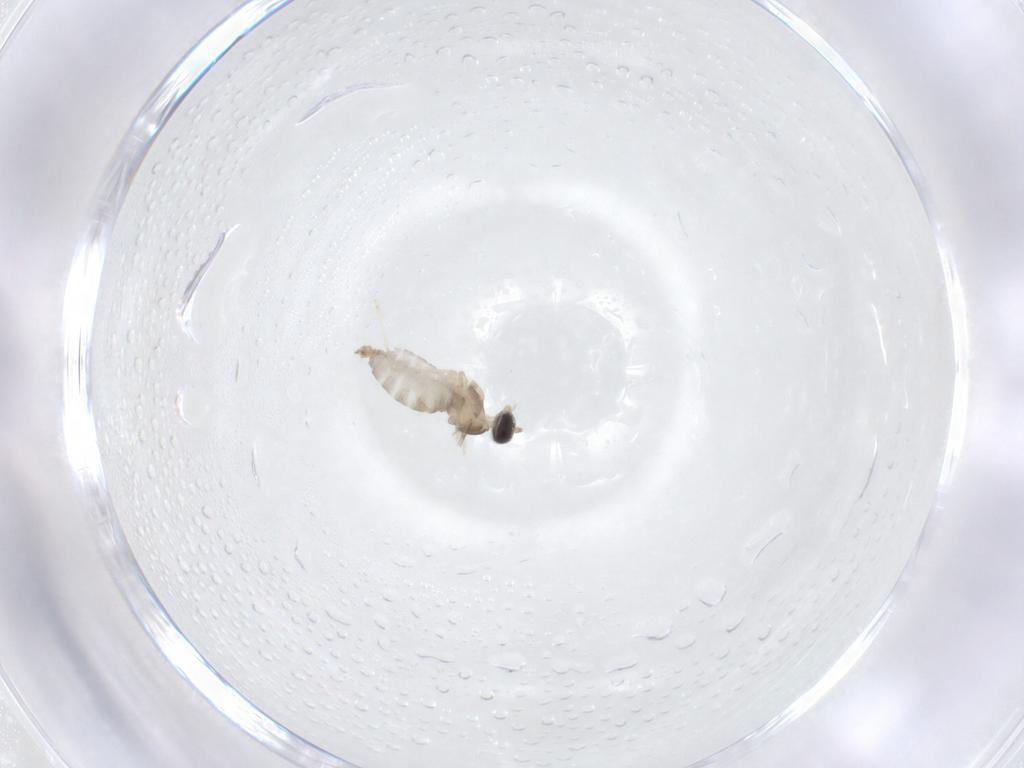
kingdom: Animalia
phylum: Arthropoda
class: Insecta
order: Diptera
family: Cecidomyiidae
